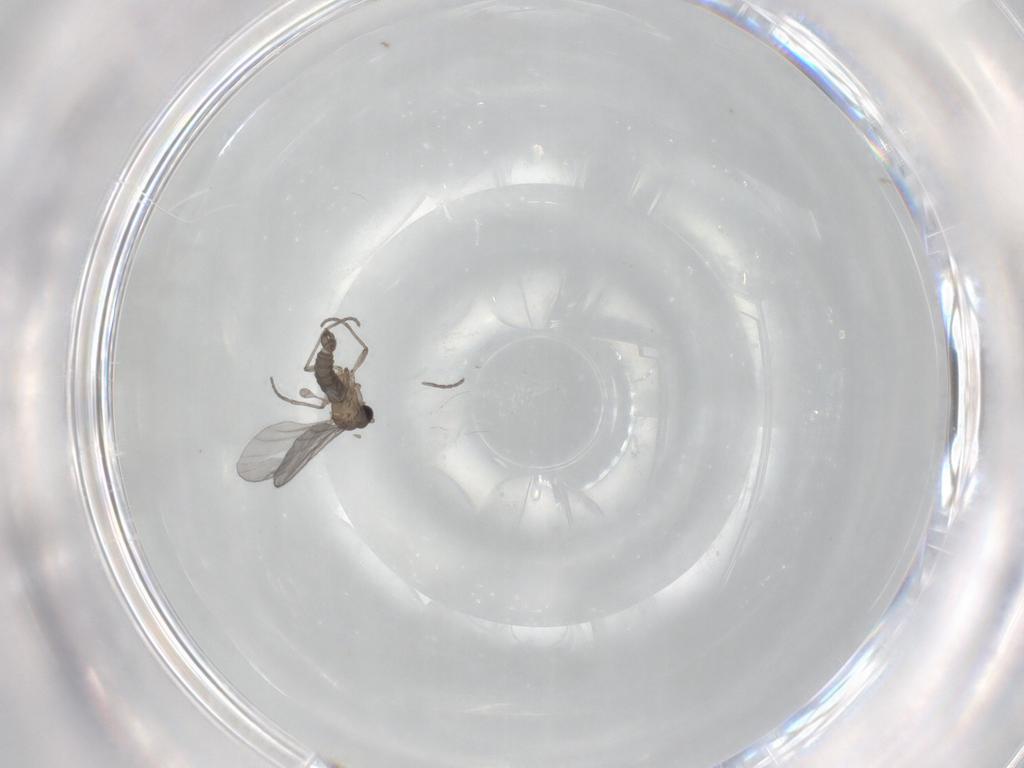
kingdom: Animalia
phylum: Arthropoda
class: Insecta
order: Diptera
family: Sciaridae
